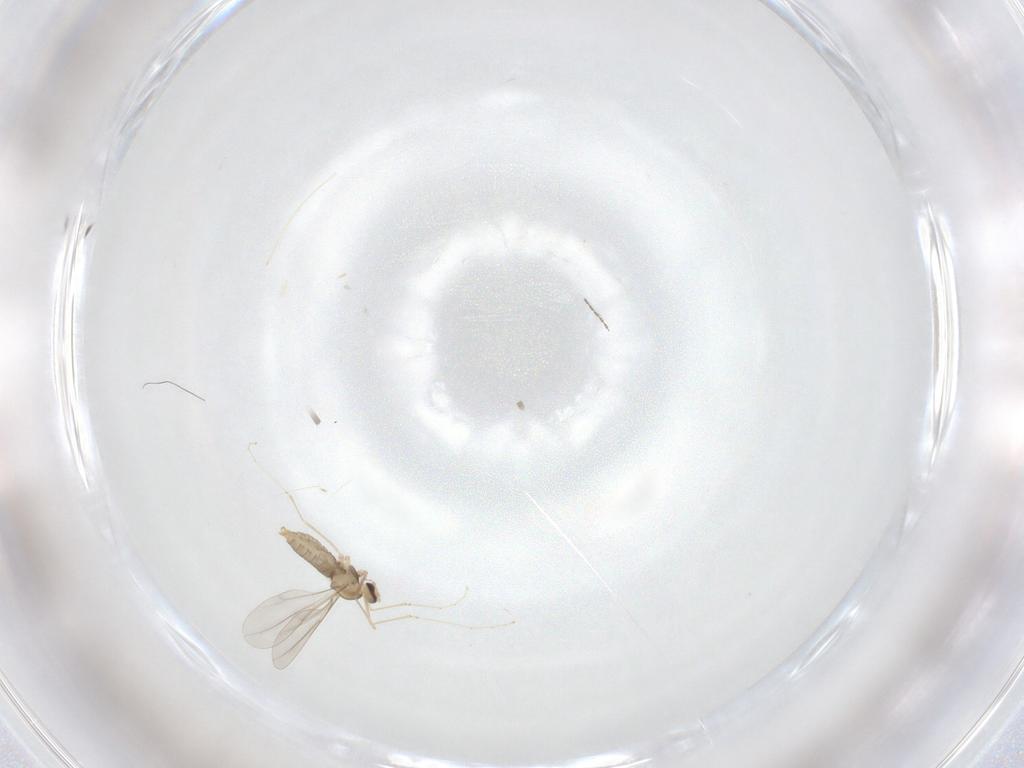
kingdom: Animalia
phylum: Arthropoda
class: Insecta
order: Diptera
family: Cecidomyiidae
